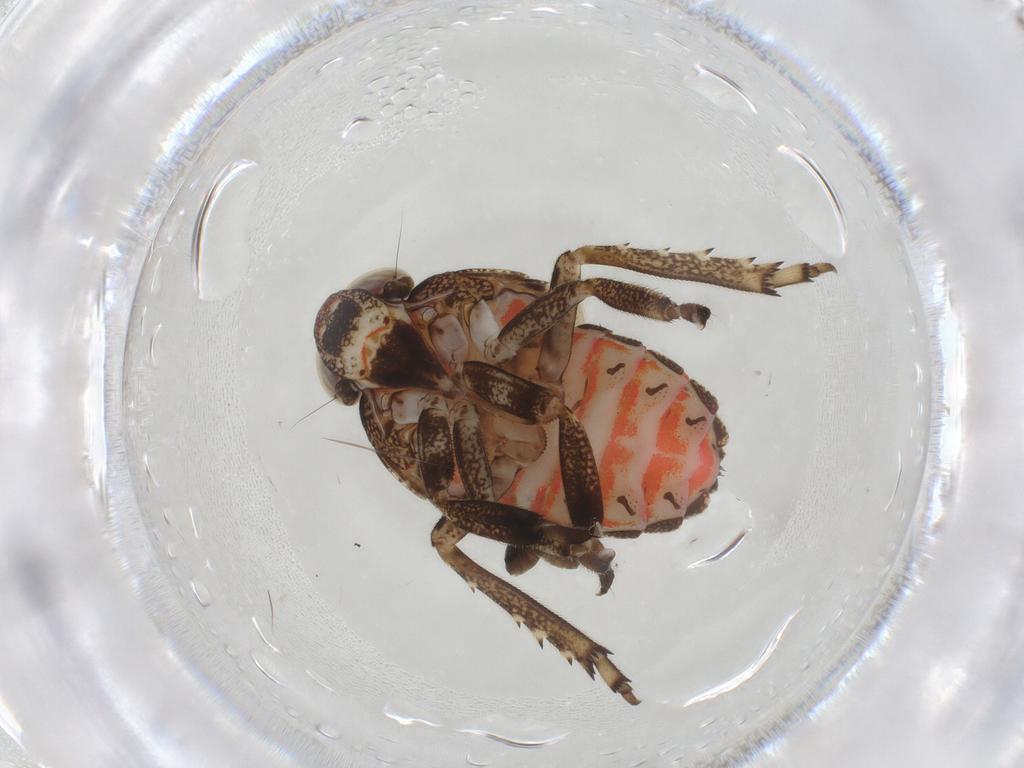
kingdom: Animalia
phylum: Arthropoda
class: Insecta
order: Hemiptera
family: Issidae
